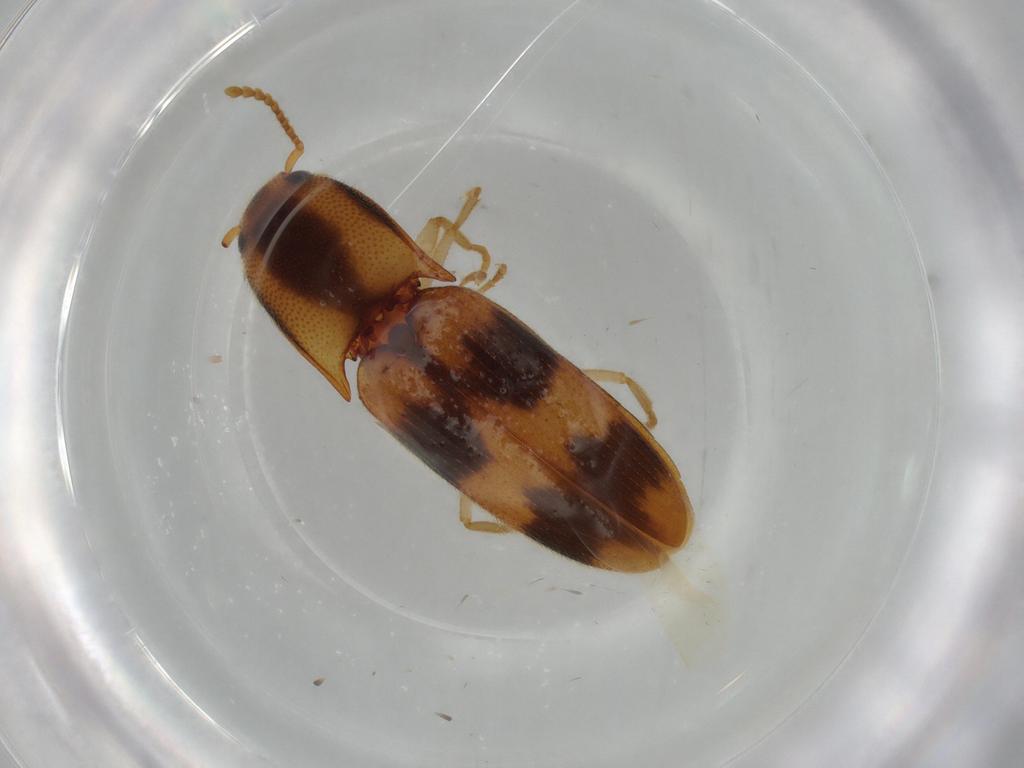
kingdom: Animalia
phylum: Arthropoda
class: Insecta
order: Coleoptera
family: Elateridae
